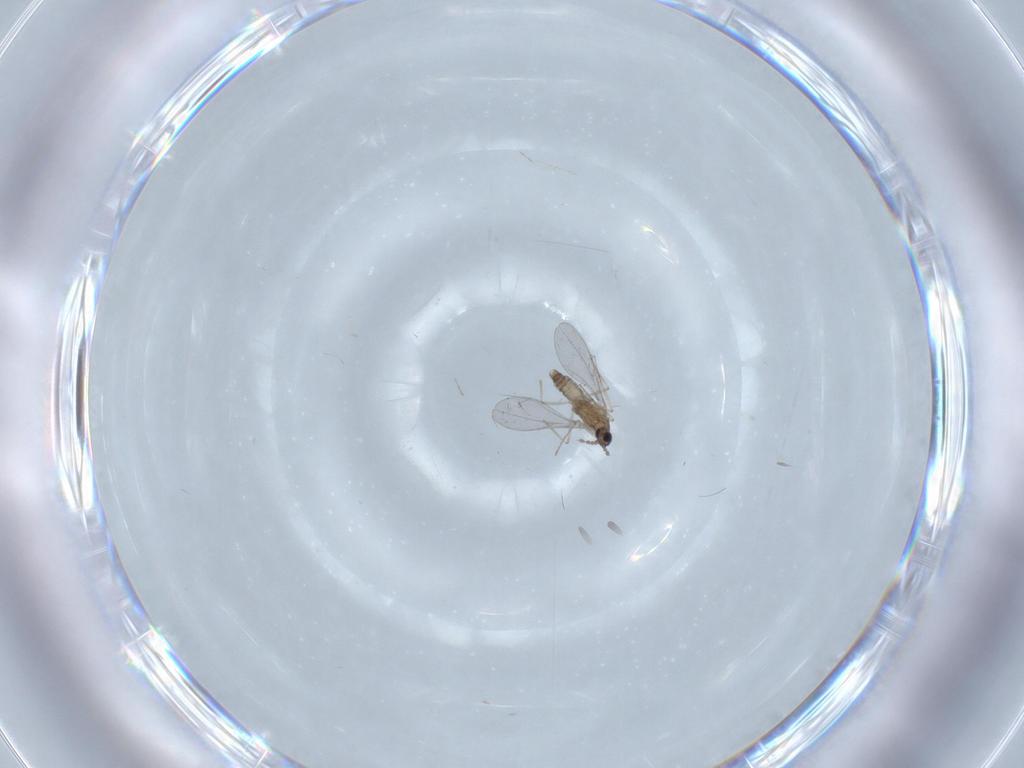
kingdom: Animalia
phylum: Arthropoda
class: Insecta
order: Diptera
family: Cecidomyiidae
